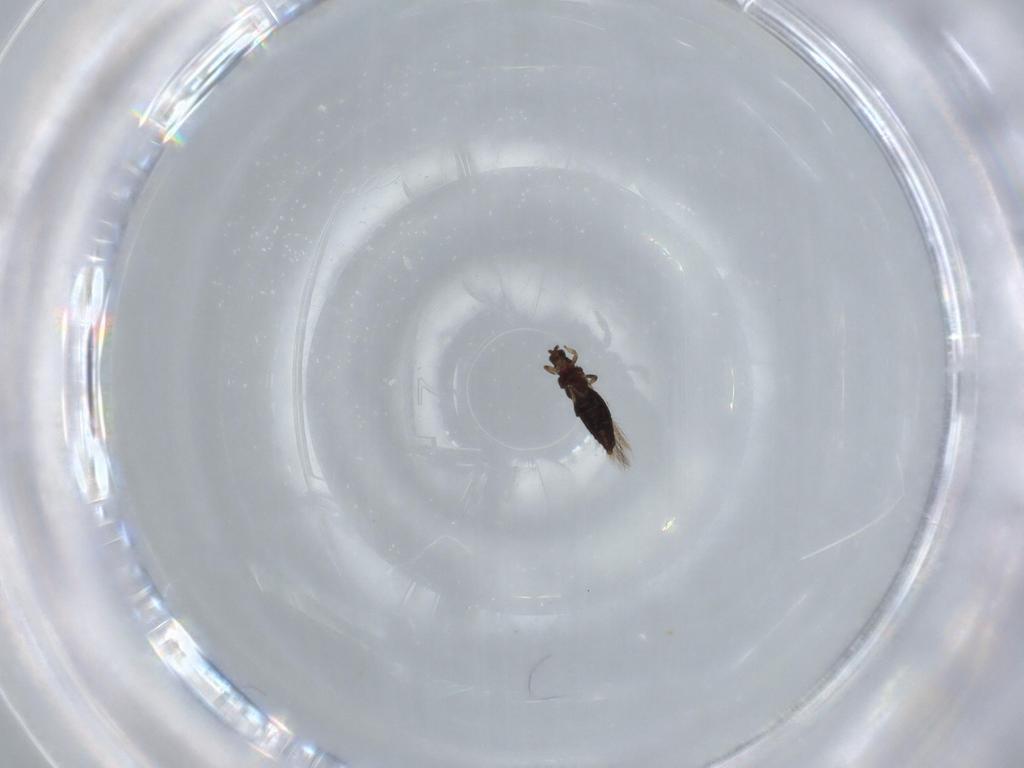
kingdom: Animalia
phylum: Arthropoda
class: Insecta
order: Thysanoptera
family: Thripidae
